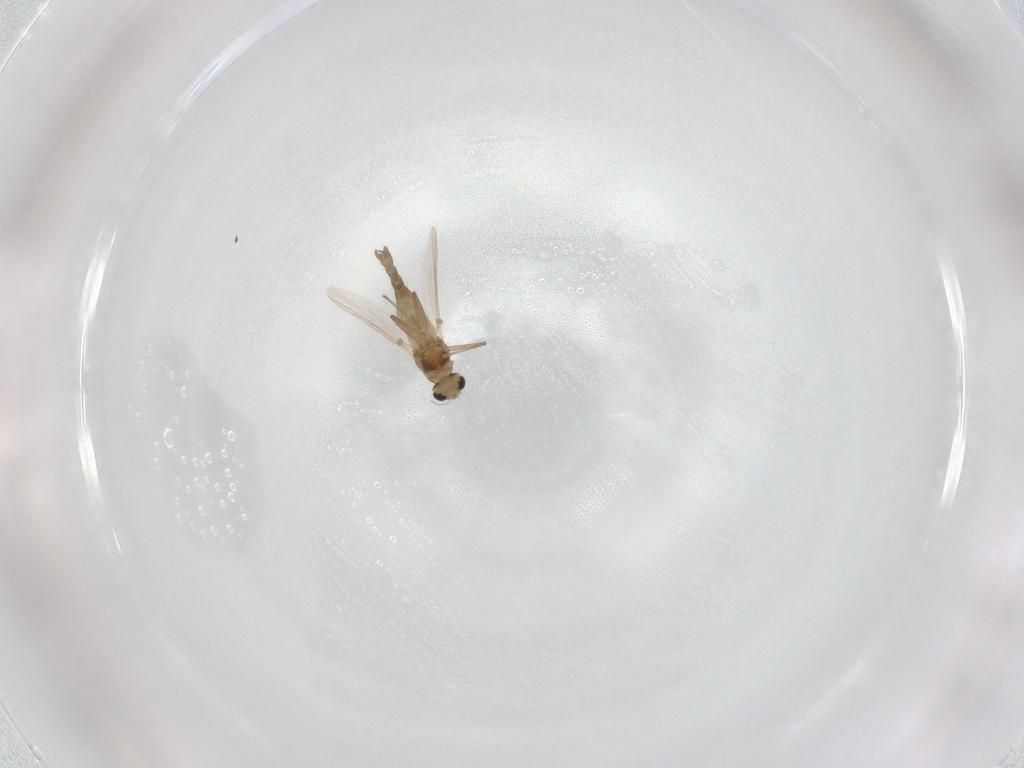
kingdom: Animalia
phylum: Arthropoda
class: Insecta
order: Diptera
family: Chironomidae
